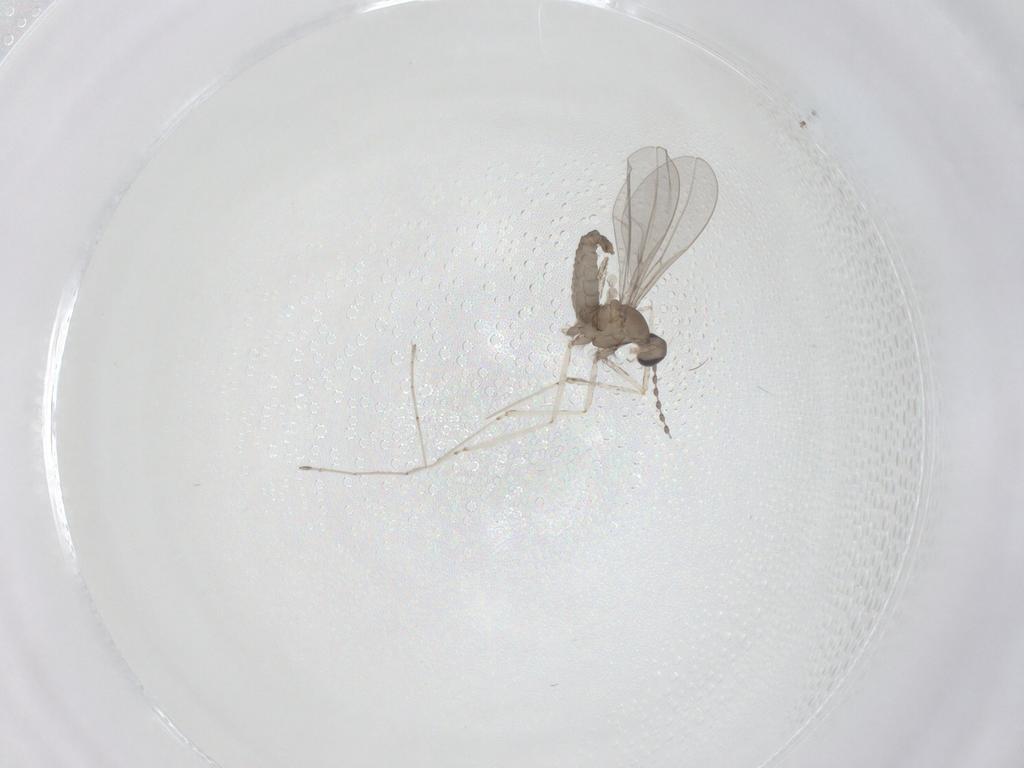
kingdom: Animalia
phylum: Arthropoda
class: Insecta
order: Diptera
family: Ceratopogonidae
